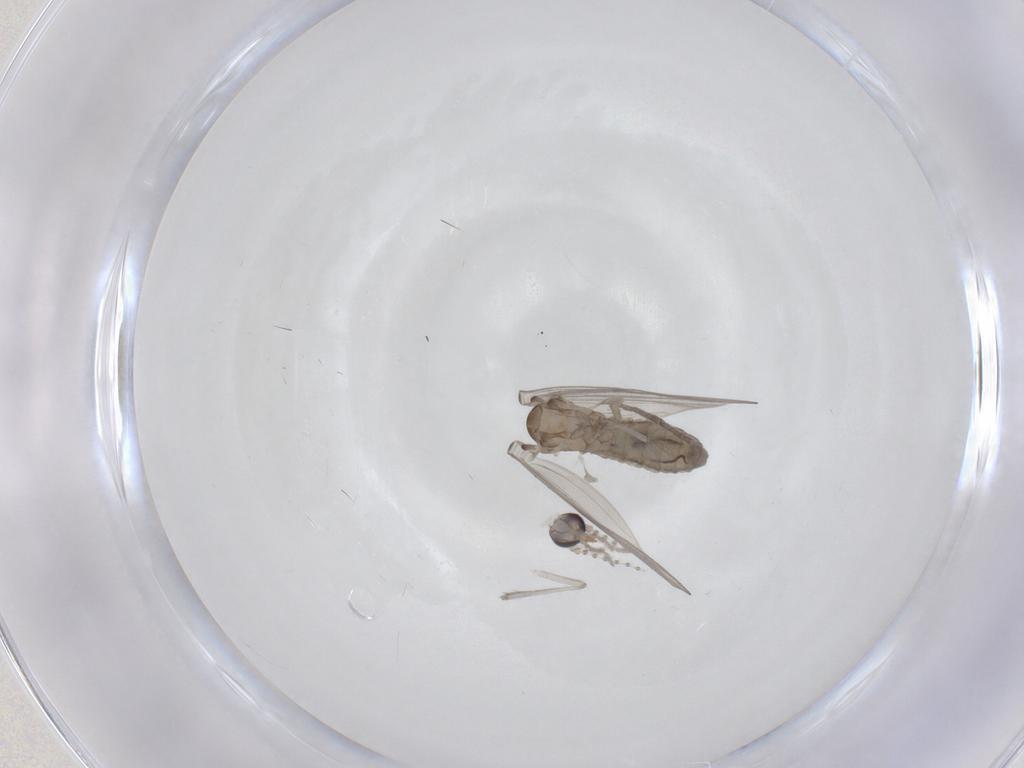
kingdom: Animalia
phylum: Arthropoda
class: Insecta
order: Diptera
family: Psychodidae
